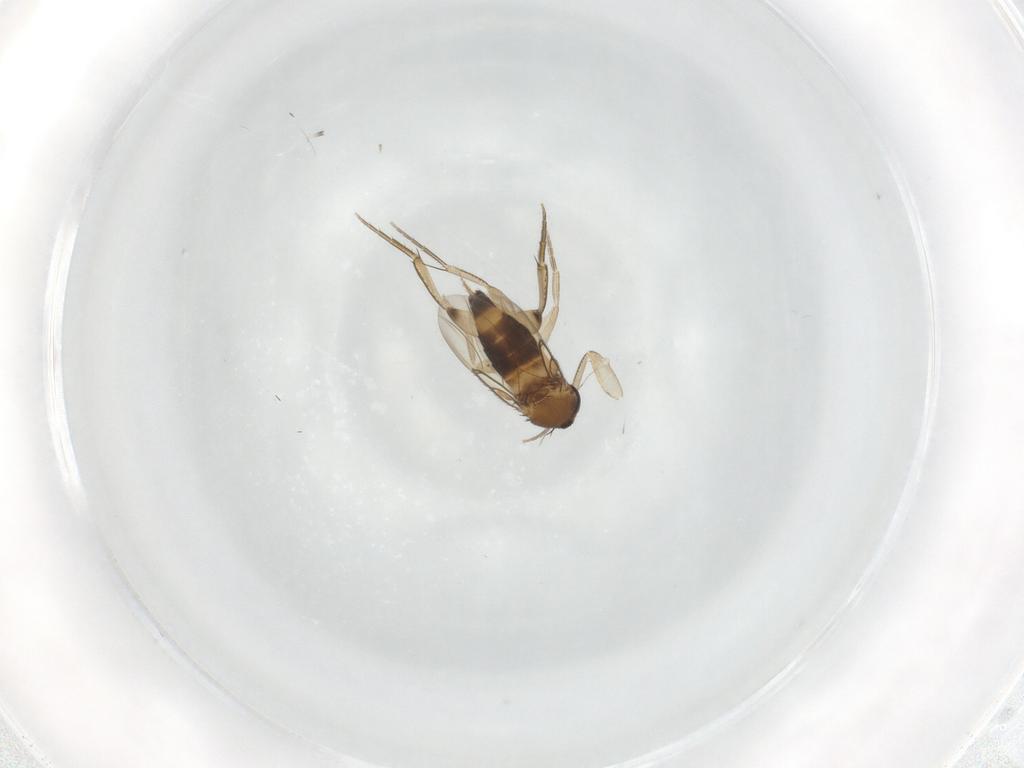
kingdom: Animalia
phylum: Arthropoda
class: Insecta
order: Diptera
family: Phoridae
